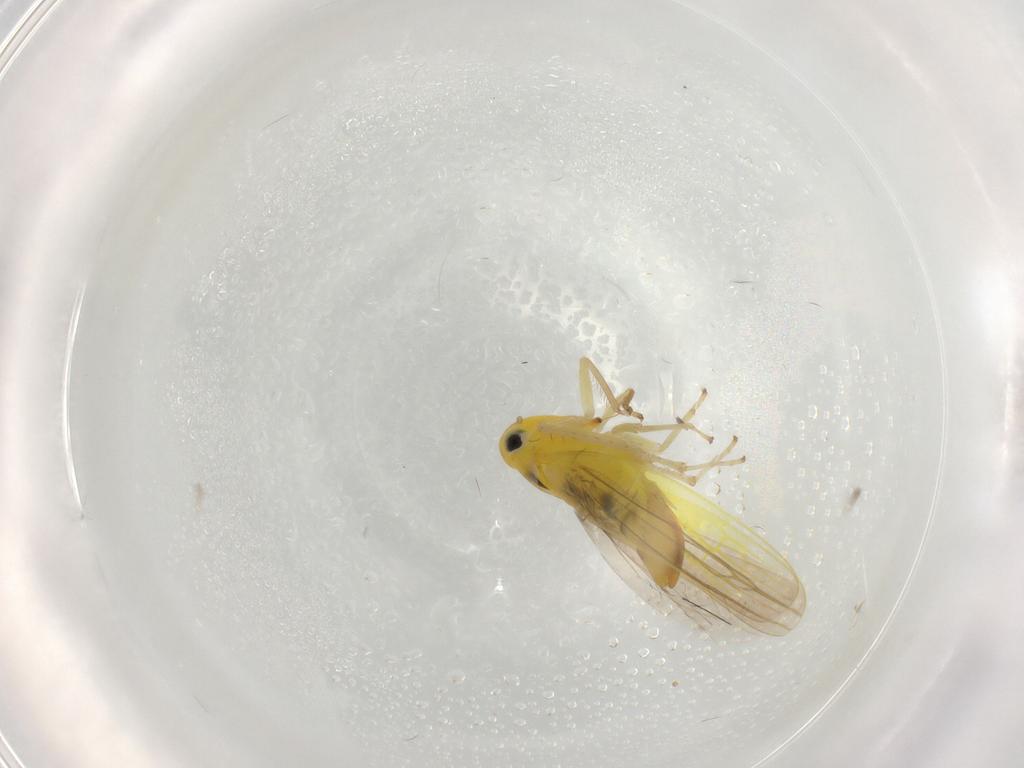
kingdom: Animalia
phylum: Arthropoda
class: Insecta
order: Hemiptera
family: Cicadellidae
